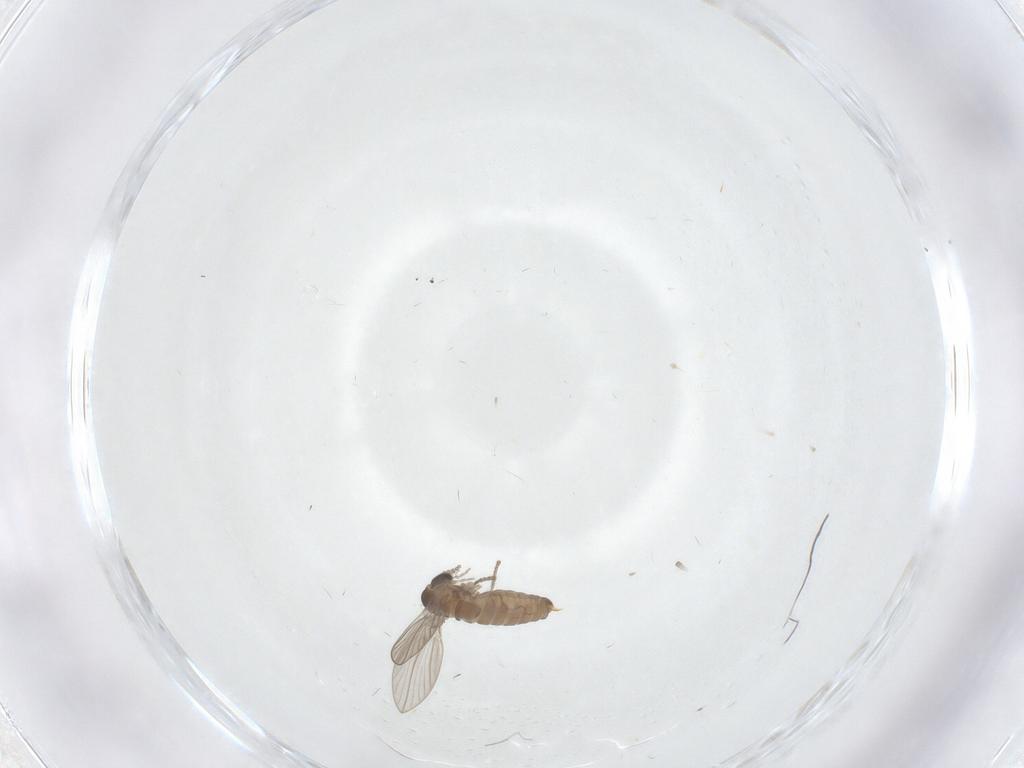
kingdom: Animalia
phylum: Arthropoda
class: Insecta
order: Diptera
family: Psychodidae
